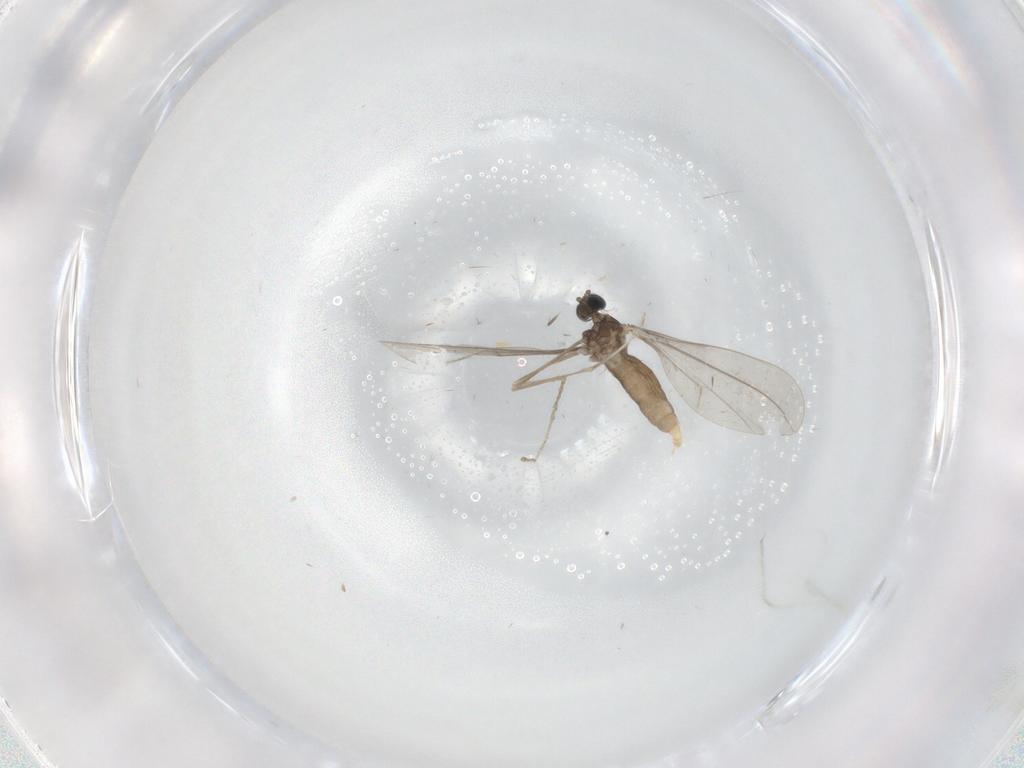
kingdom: Animalia
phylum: Arthropoda
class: Insecta
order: Diptera
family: Cecidomyiidae
